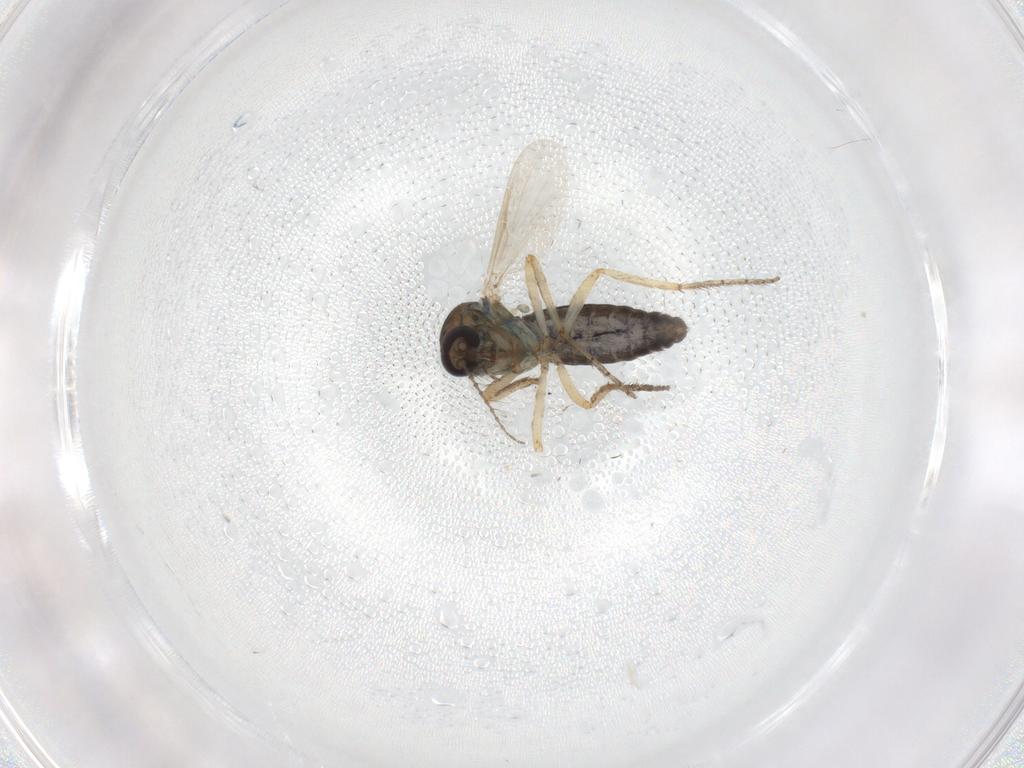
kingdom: Animalia
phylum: Arthropoda
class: Insecta
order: Diptera
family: Ceratopogonidae
